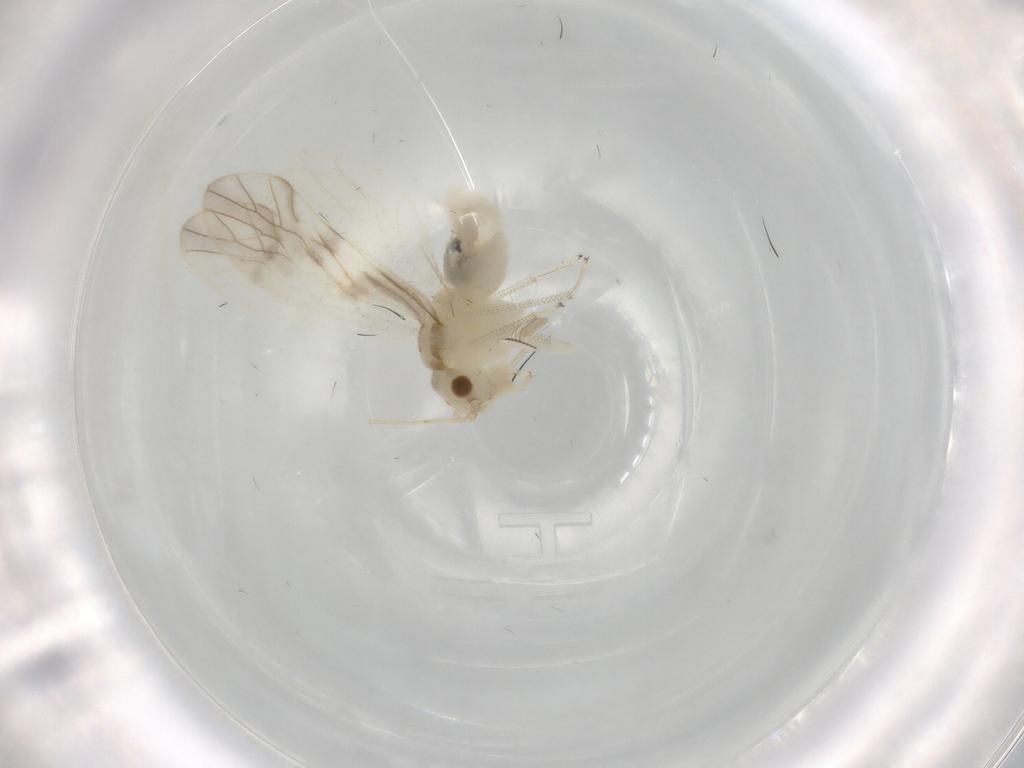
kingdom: Animalia
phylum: Arthropoda
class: Insecta
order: Psocodea
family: Caeciliusidae
